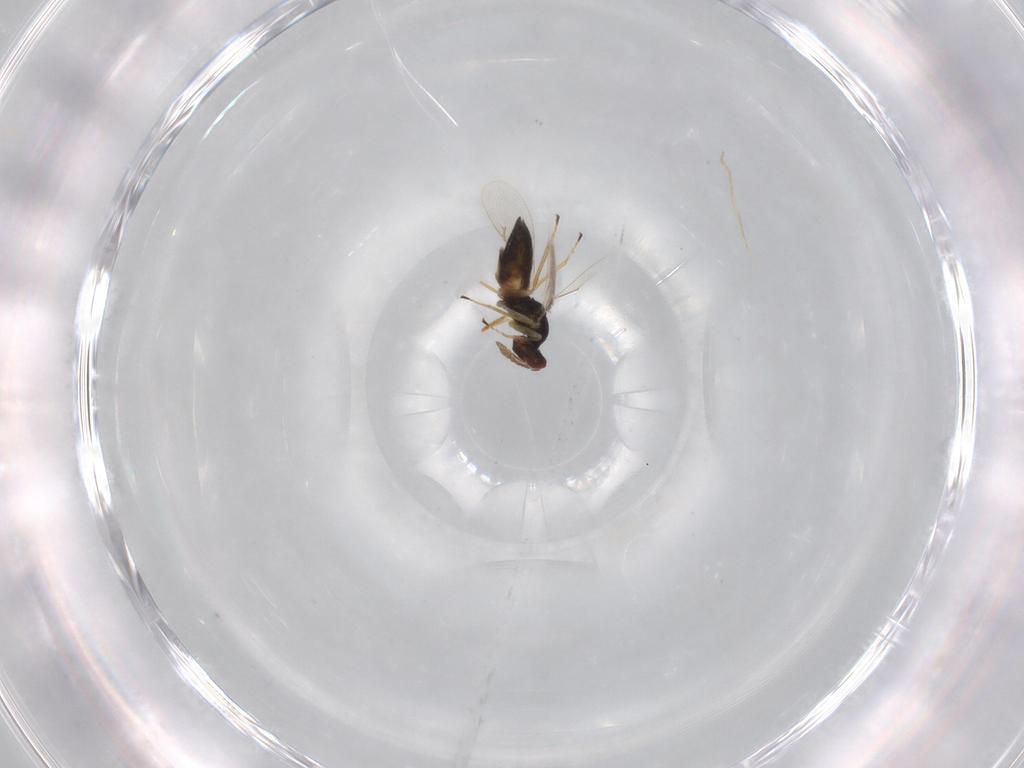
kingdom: Animalia
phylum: Arthropoda
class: Insecta
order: Hymenoptera
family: Eulophidae
